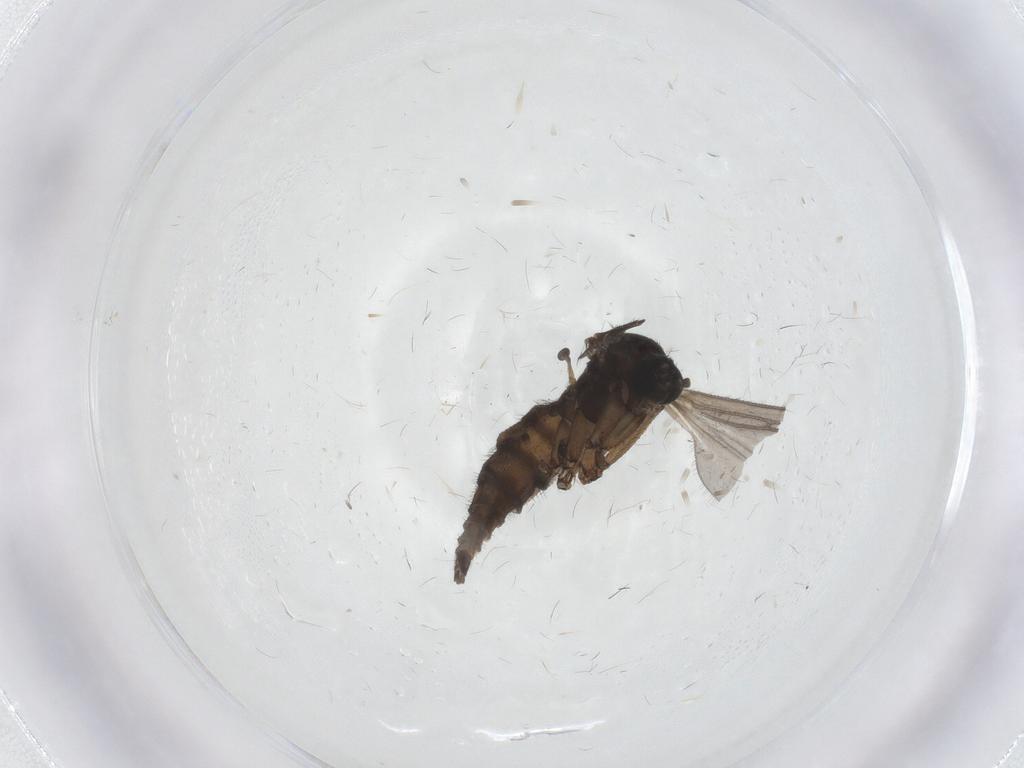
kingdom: Animalia
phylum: Arthropoda
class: Insecta
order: Diptera
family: Sciaridae
